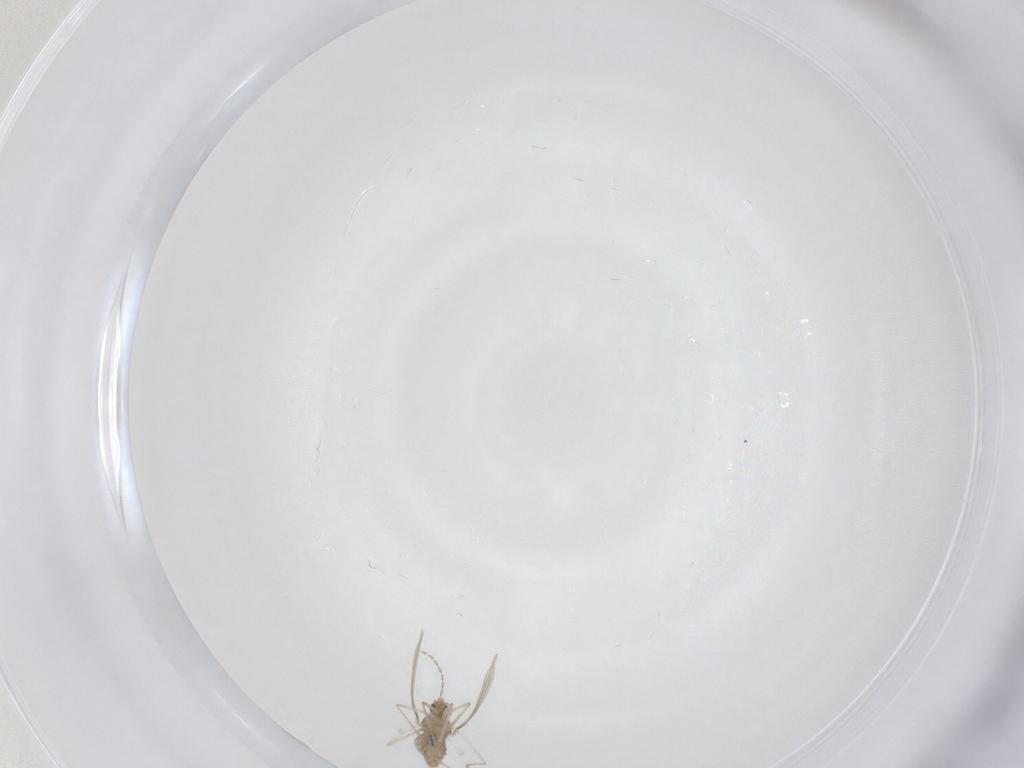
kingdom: Animalia
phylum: Arthropoda
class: Insecta
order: Diptera
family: Cecidomyiidae
